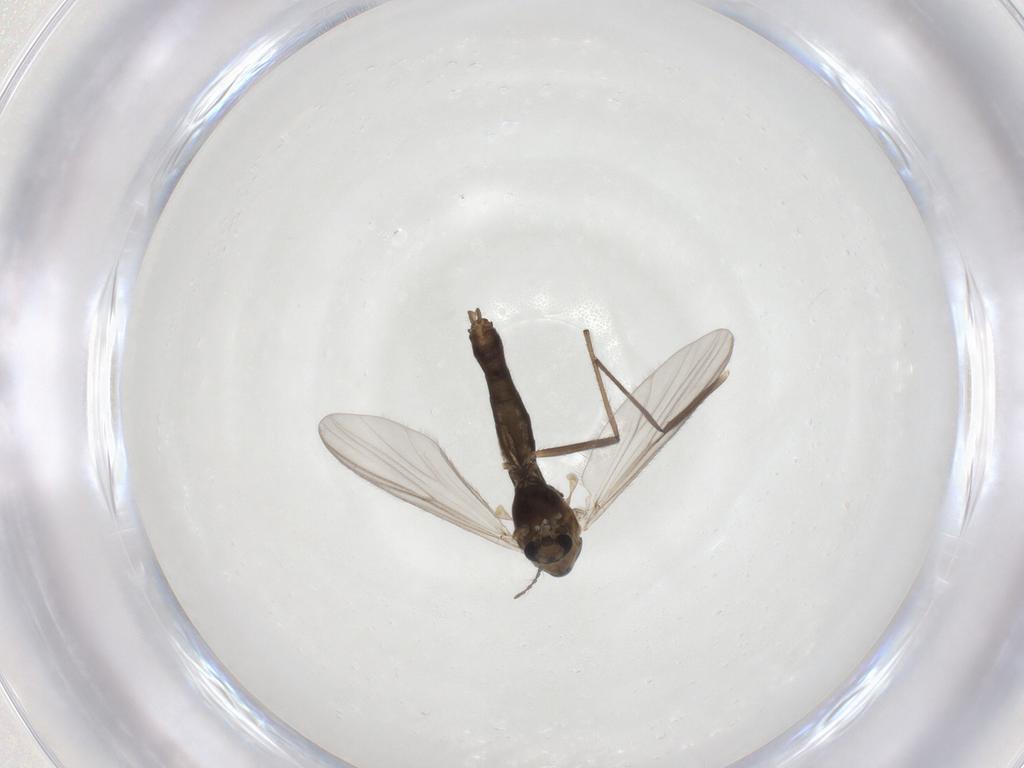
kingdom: Animalia
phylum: Arthropoda
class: Insecta
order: Diptera
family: Chironomidae
